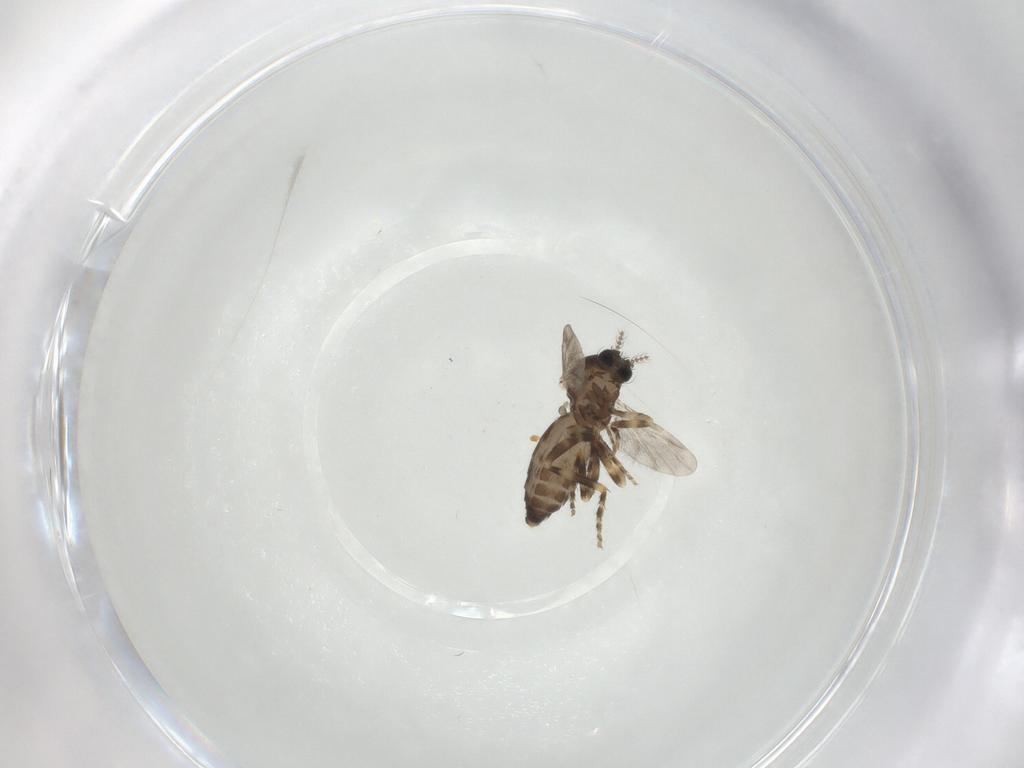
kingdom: Animalia
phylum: Arthropoda
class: Insecta
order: Diptera
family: Ceratopogonidae
